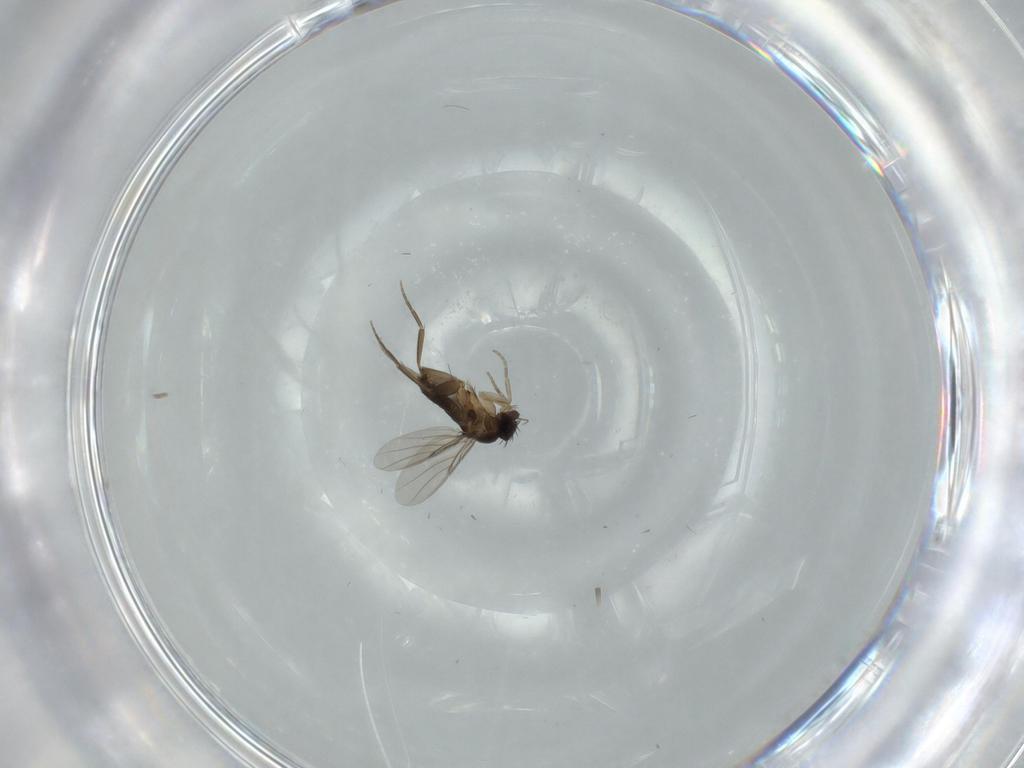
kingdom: Animalia
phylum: Arthropoda
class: Insecta
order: Diptera
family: Phoridae
